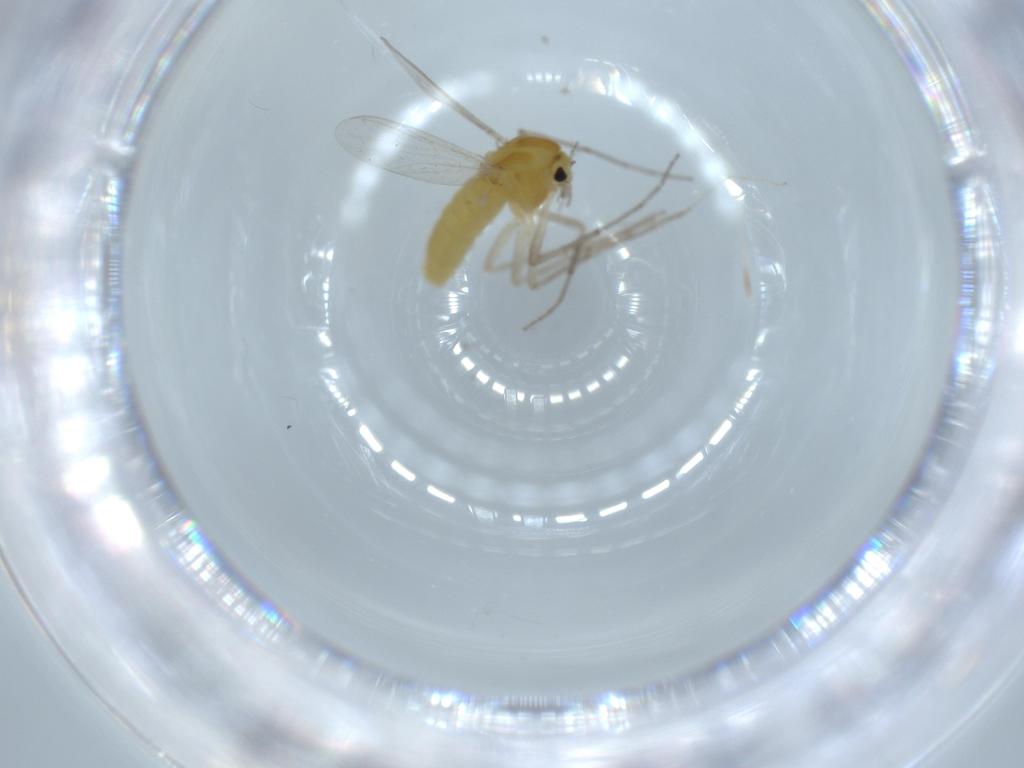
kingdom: Animalia
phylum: Arthropoda
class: Insecta
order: Diptera
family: Chironomidae
